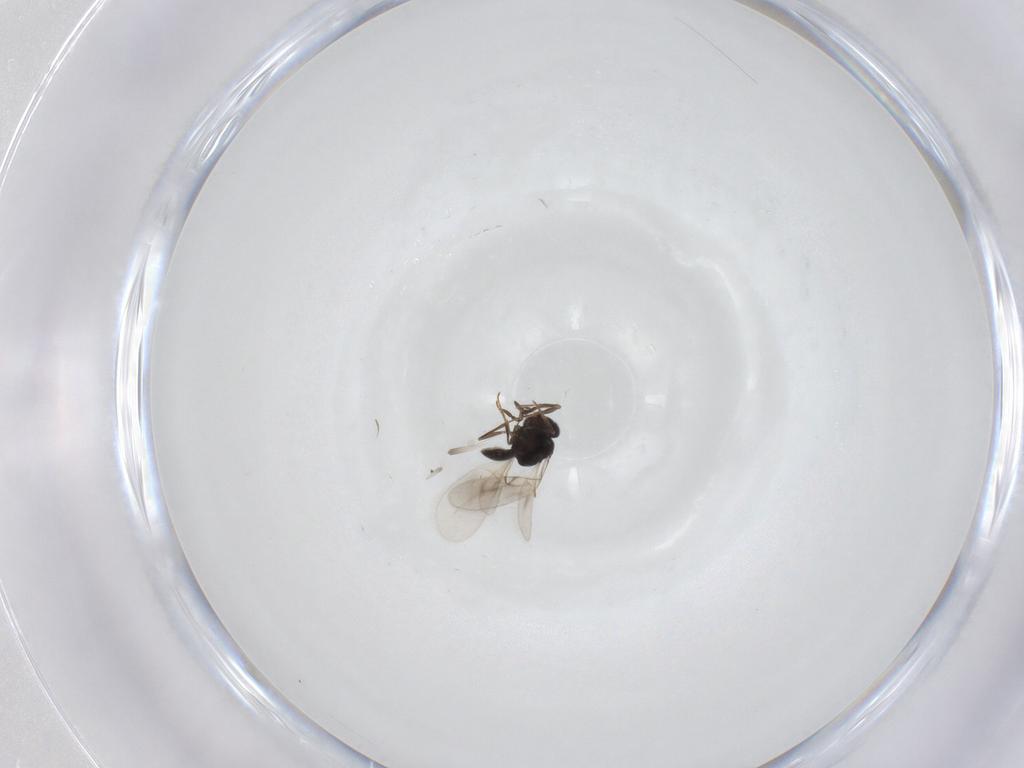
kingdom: Animalia
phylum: Arthropoda
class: Insecta
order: Hymenoptera
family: Scelionidae
